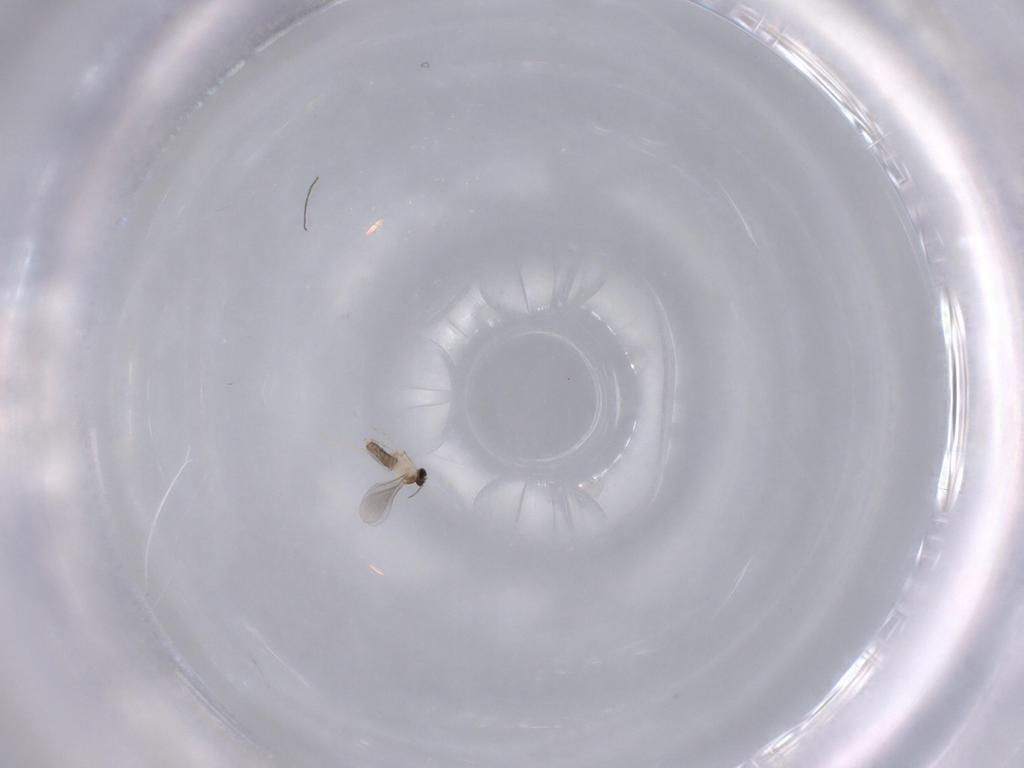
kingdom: Animalia
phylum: Arthropoda
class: Insecta
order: Diptera
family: Cecidomyiidae
